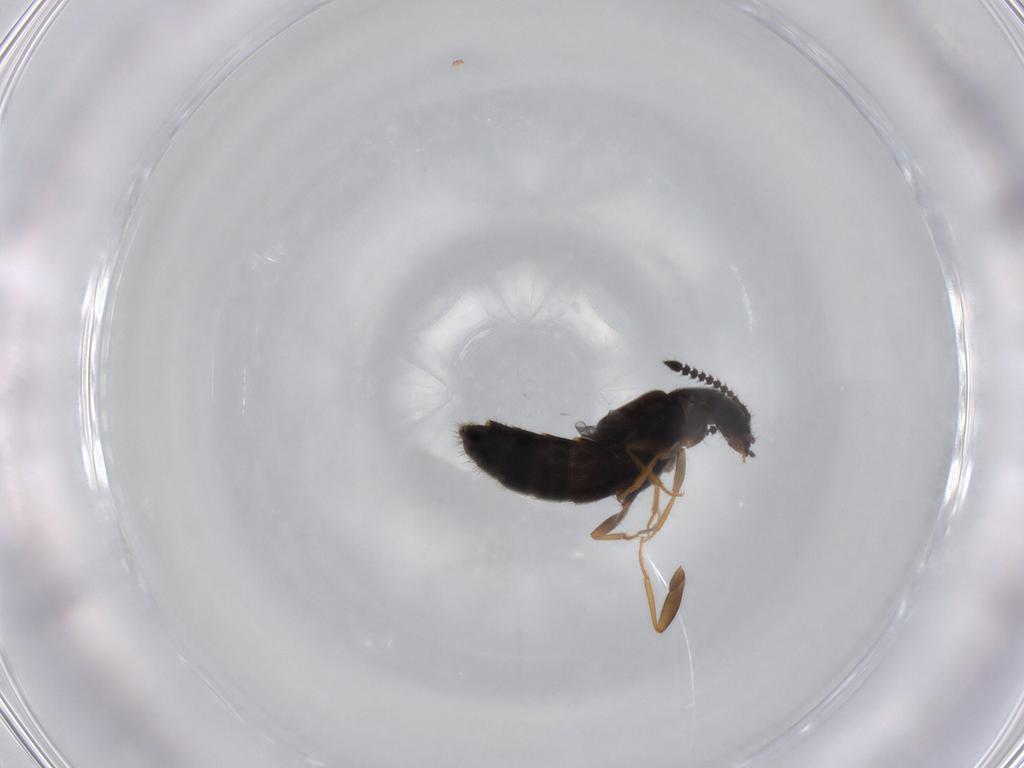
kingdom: Animalia
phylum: Arthropoda
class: Insecta
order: Coleoptera
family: Staphylinidae
